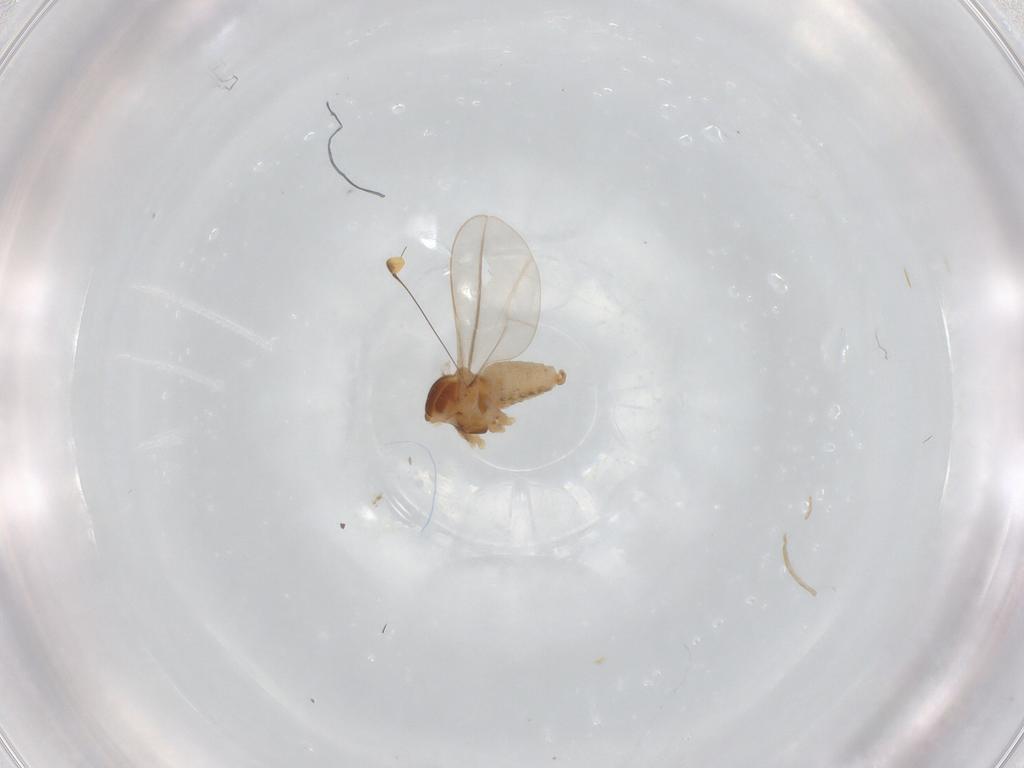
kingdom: Animalia
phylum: Arthropoda
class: Insecta
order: Diptera
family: Cecidomyiidae
